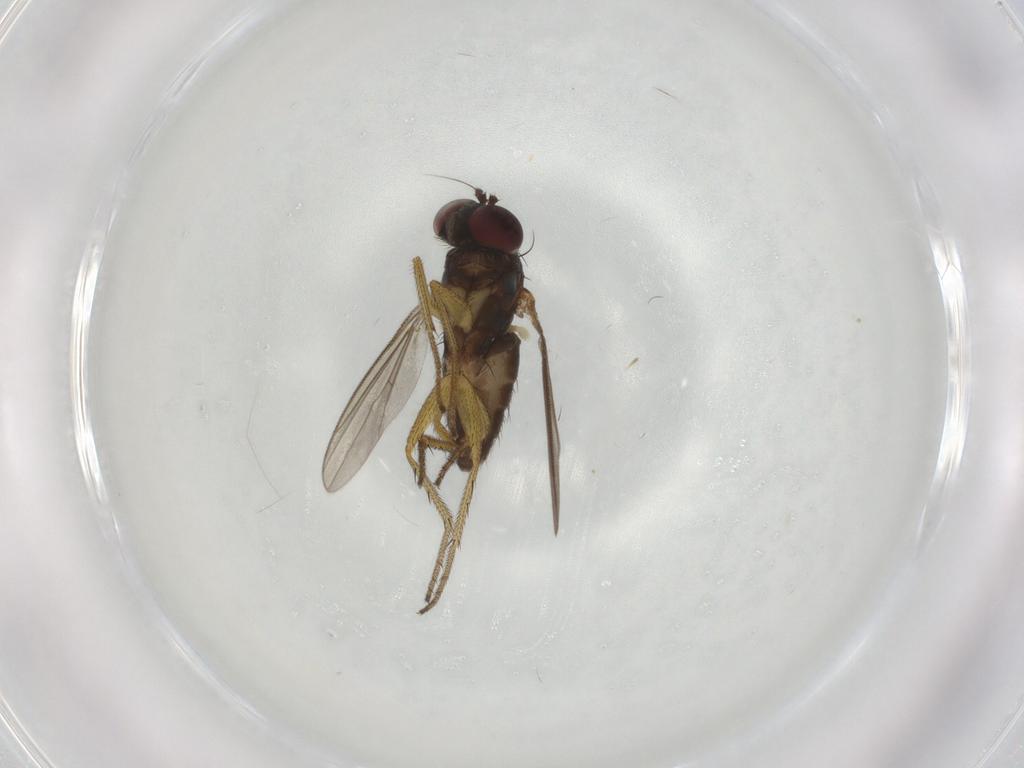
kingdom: Animalia
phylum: Arthropoda
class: Insecta
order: Diptera
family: Dolichopodidae
